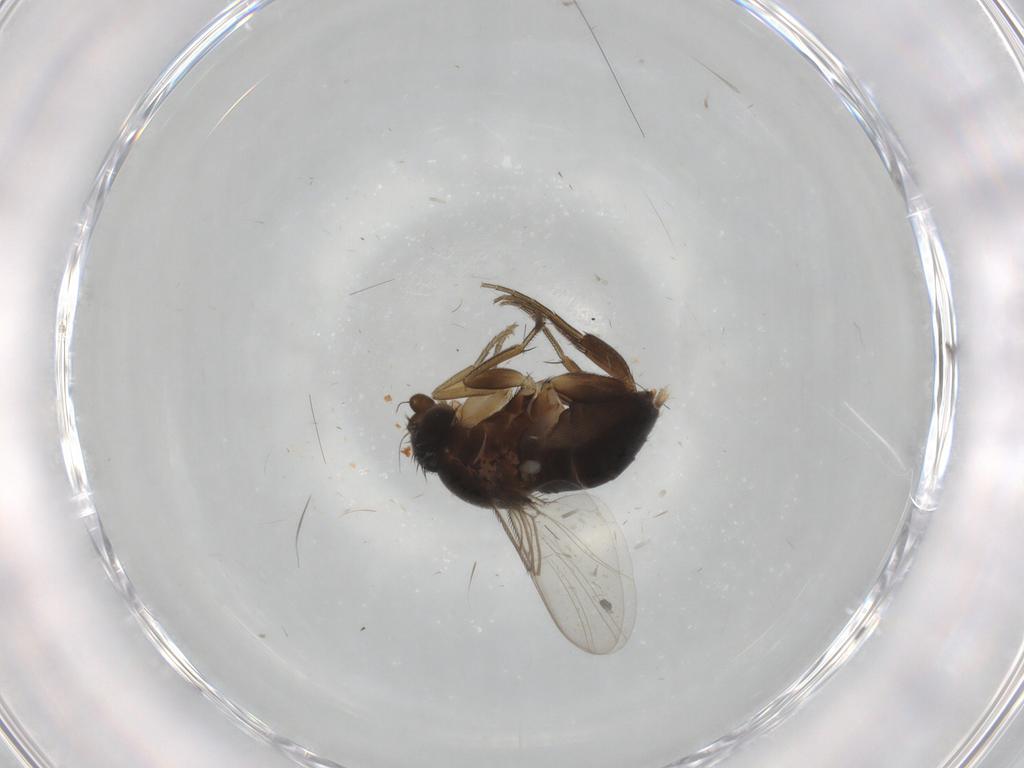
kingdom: Animalia
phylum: Arthropoda
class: Insecta
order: Diptera
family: Phoridae
